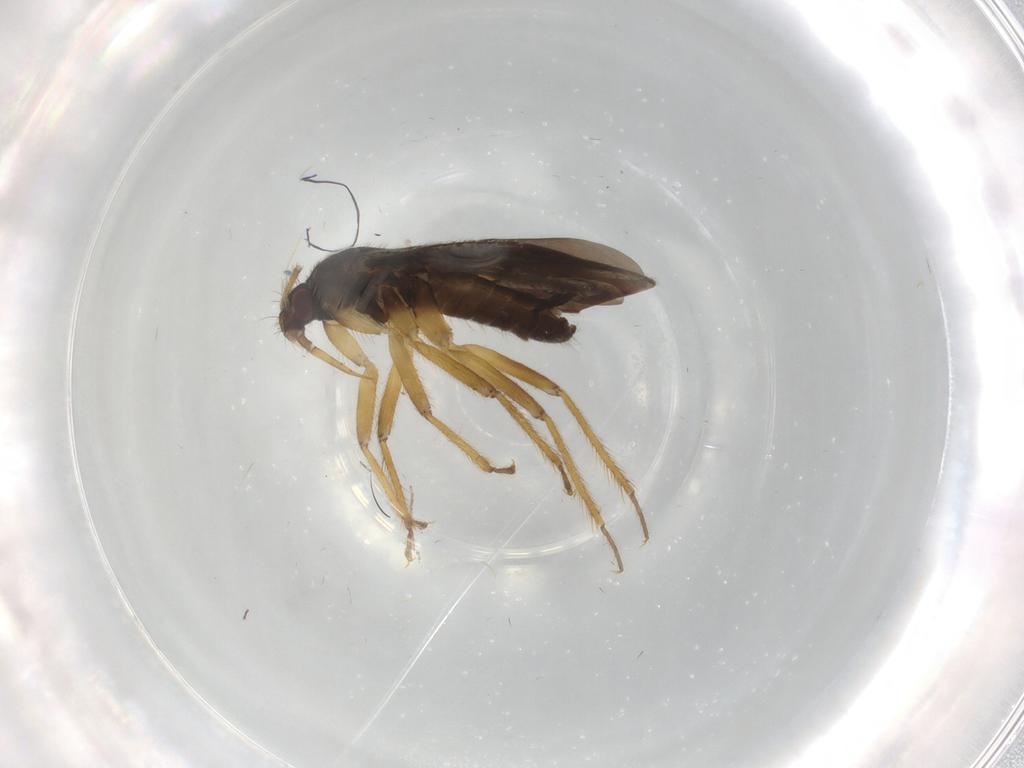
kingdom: Animalia
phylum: Arthropoda
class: Insecta
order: Hemiptera
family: Ceratocombidae
